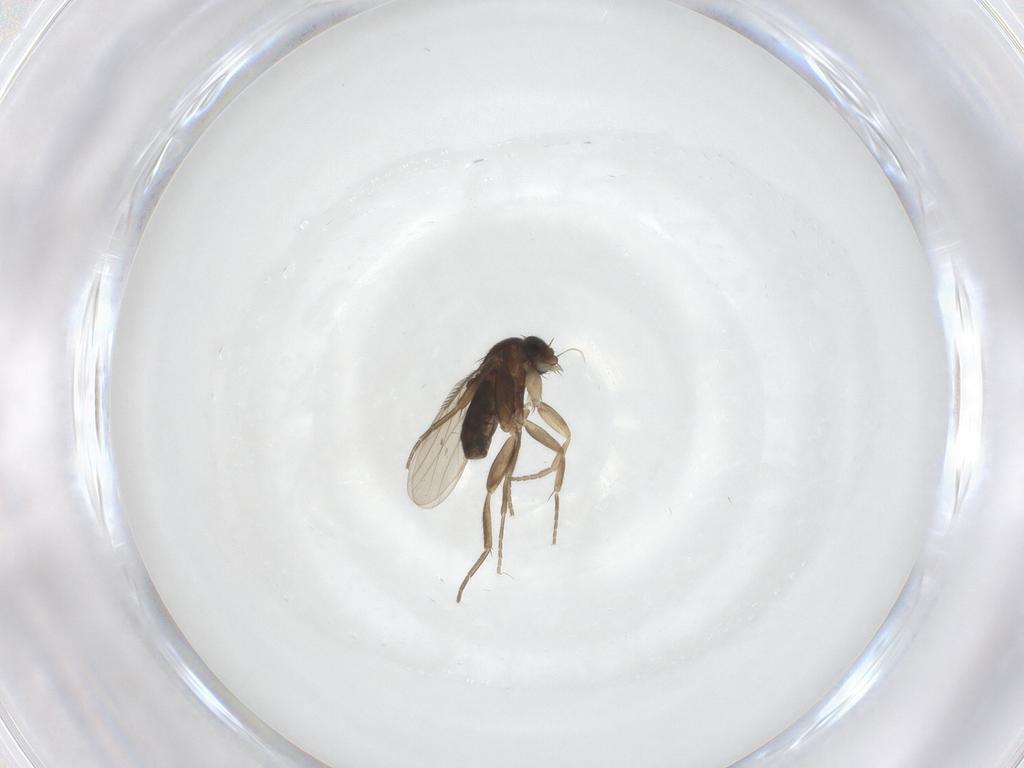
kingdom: Animalia
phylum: Arthropoda
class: Insecta
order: Diptera
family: Phoridae
